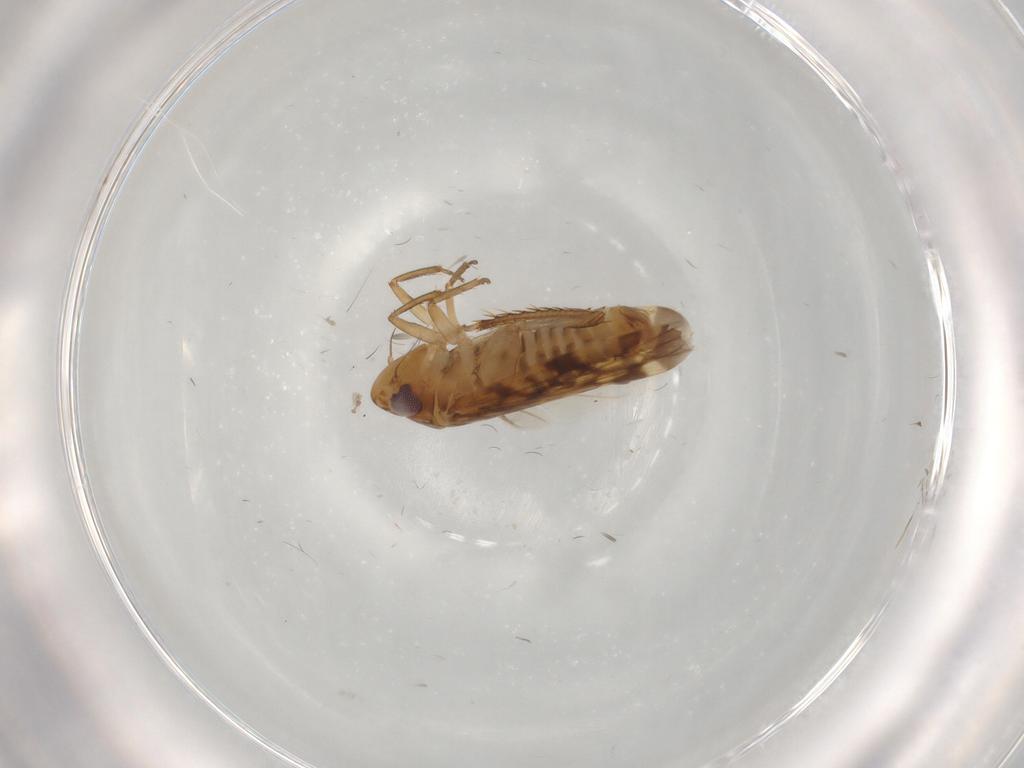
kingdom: Animalia
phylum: Arthropoda
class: Insecta
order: Hemiptera
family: Cicadellidae
